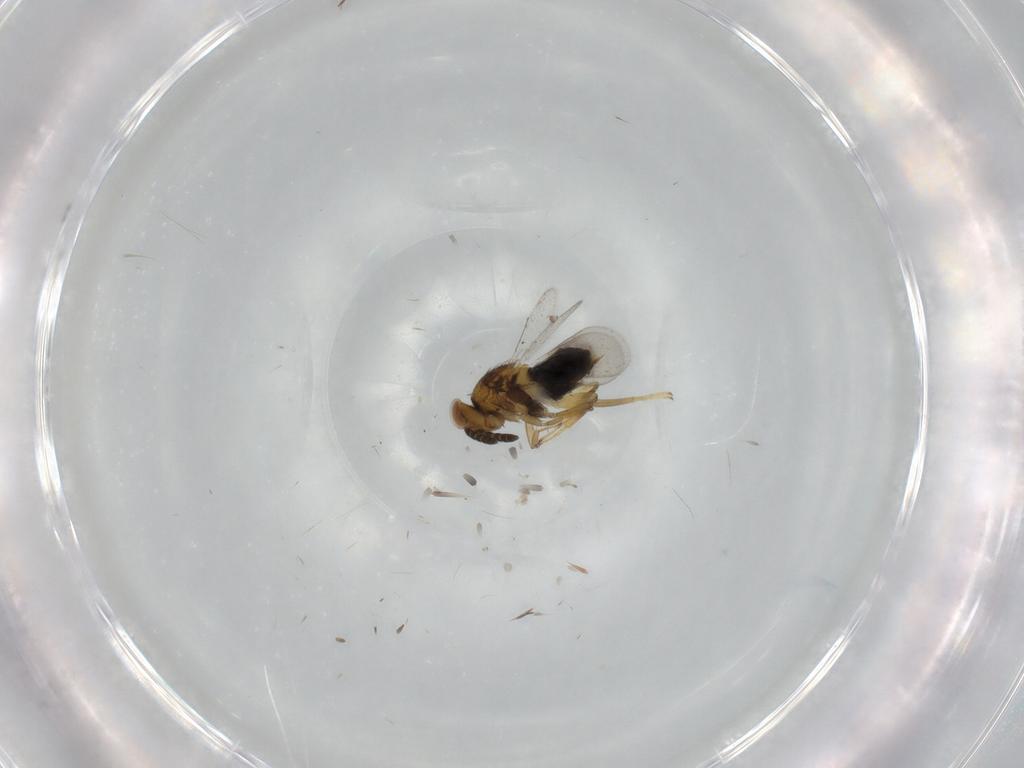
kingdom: Animalia
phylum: Arthropoda
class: Insecta
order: Hymenoptera
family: Aphelinidae
